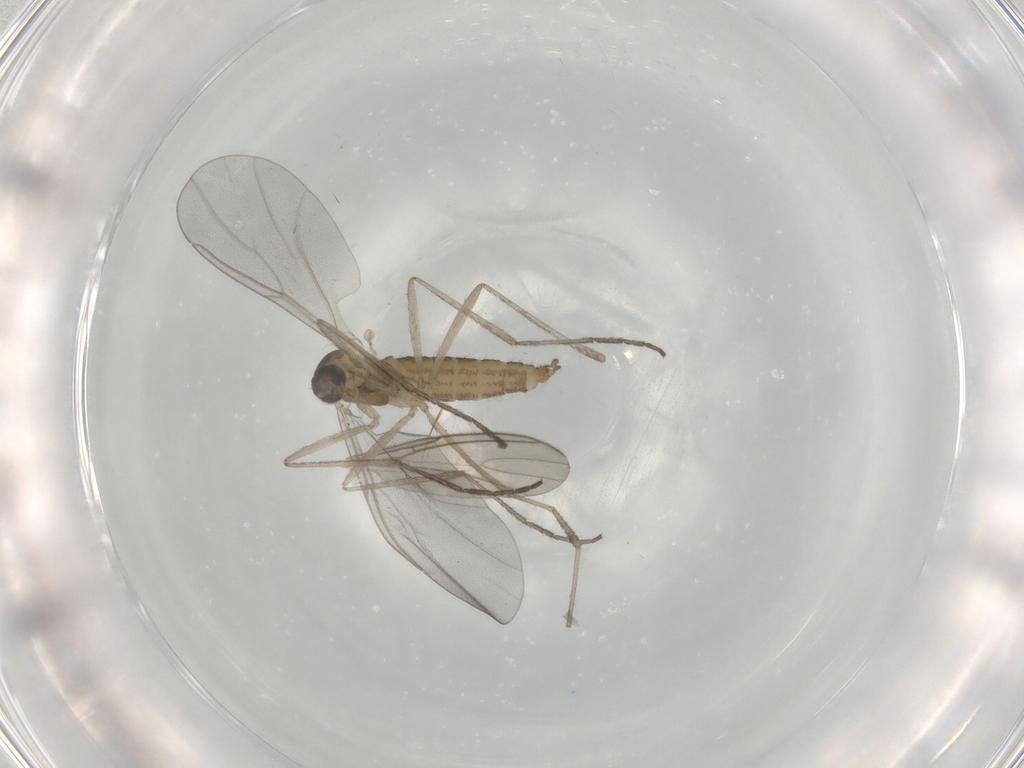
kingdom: Animalia
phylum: Arthropoda
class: Insecta
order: Diptera
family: Cecidomyiidae
